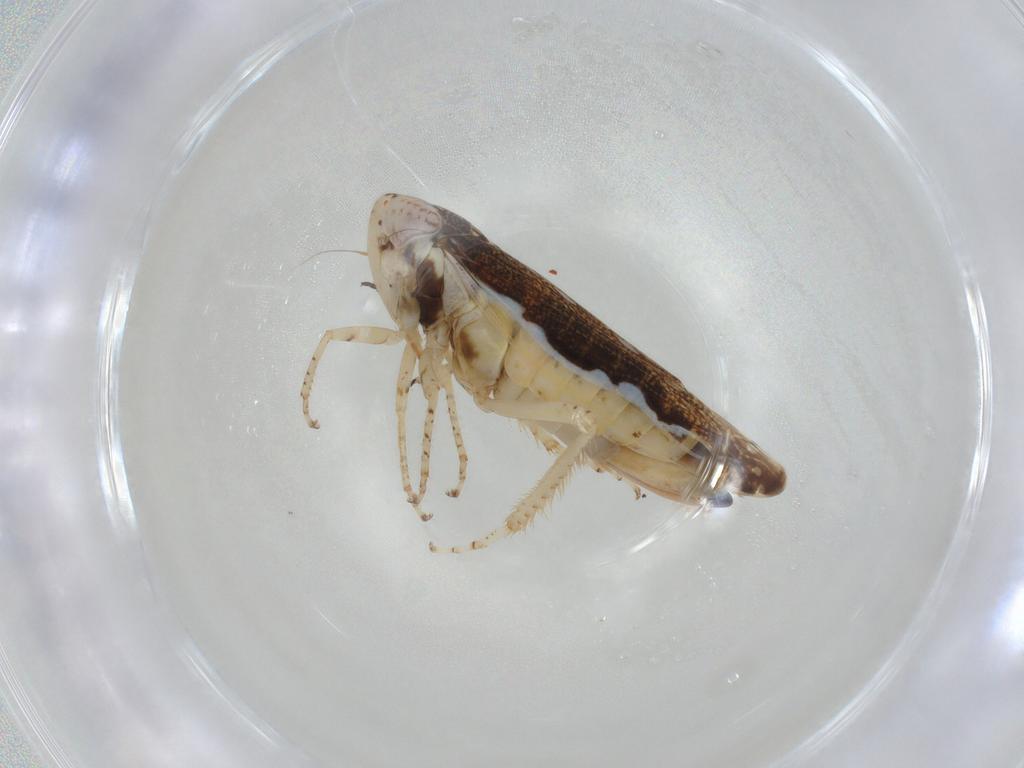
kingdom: Animalia
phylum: Arthropoda
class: Insecta
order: Hemiptera
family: Cicadellidae
